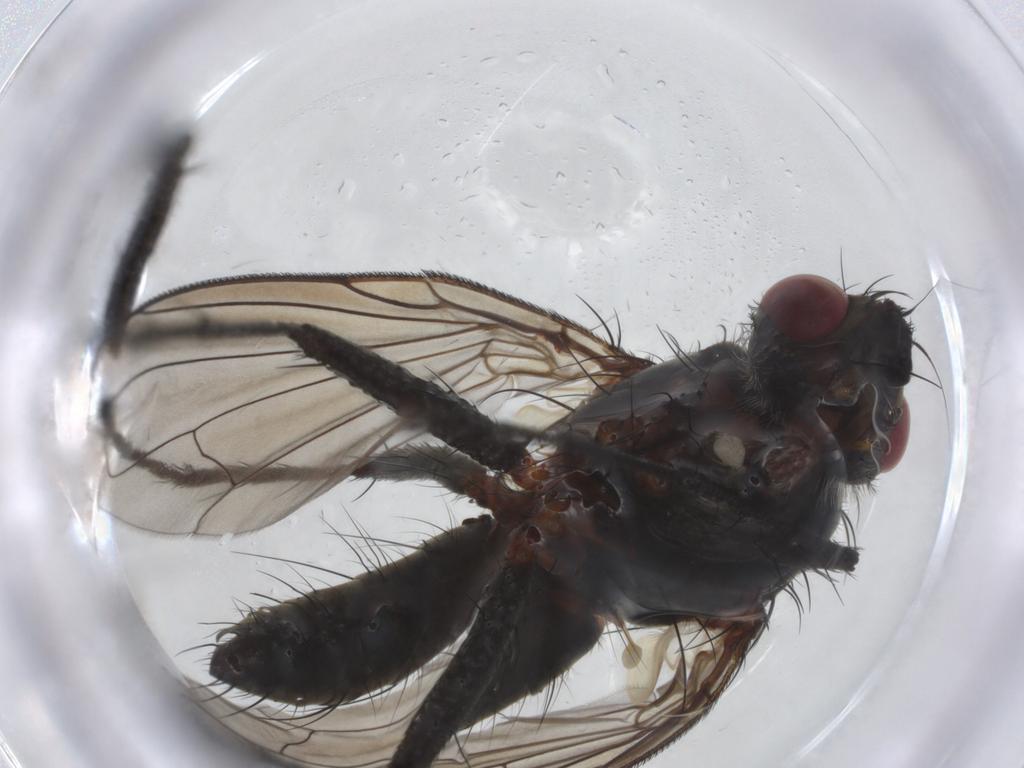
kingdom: Animalia
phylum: Arthropoda
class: Insecta
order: Diptera
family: Tachinidae
